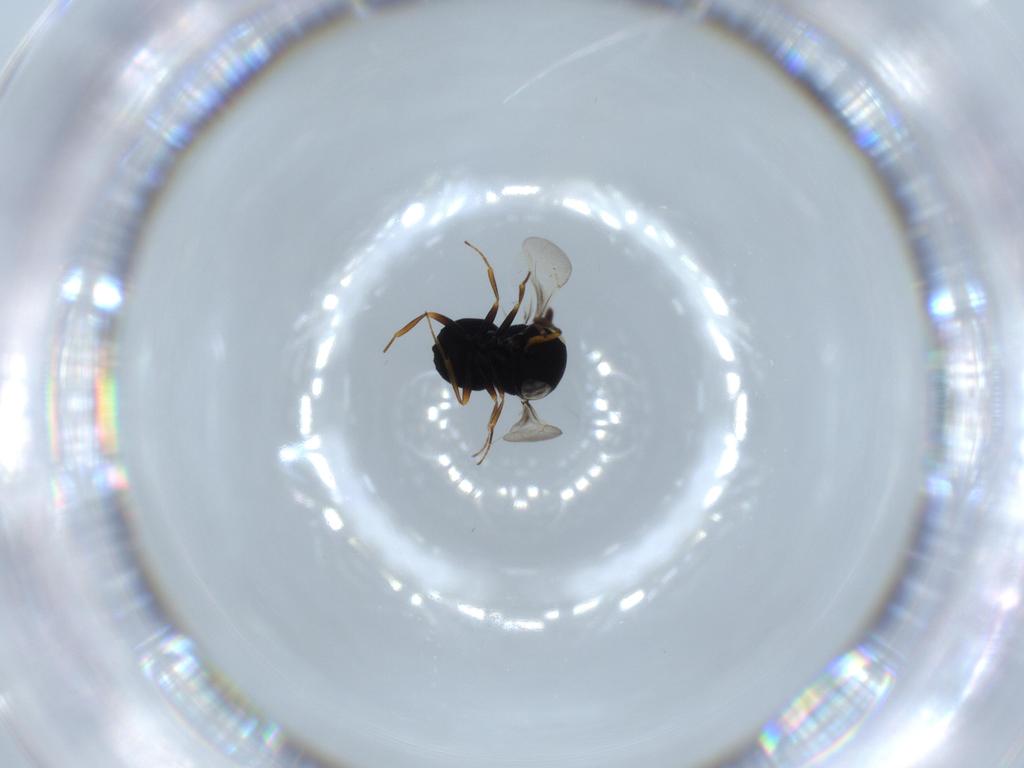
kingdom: Animalia
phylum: Arthropoda
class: Insecta
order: Hymenoptera
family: Scelionidae
